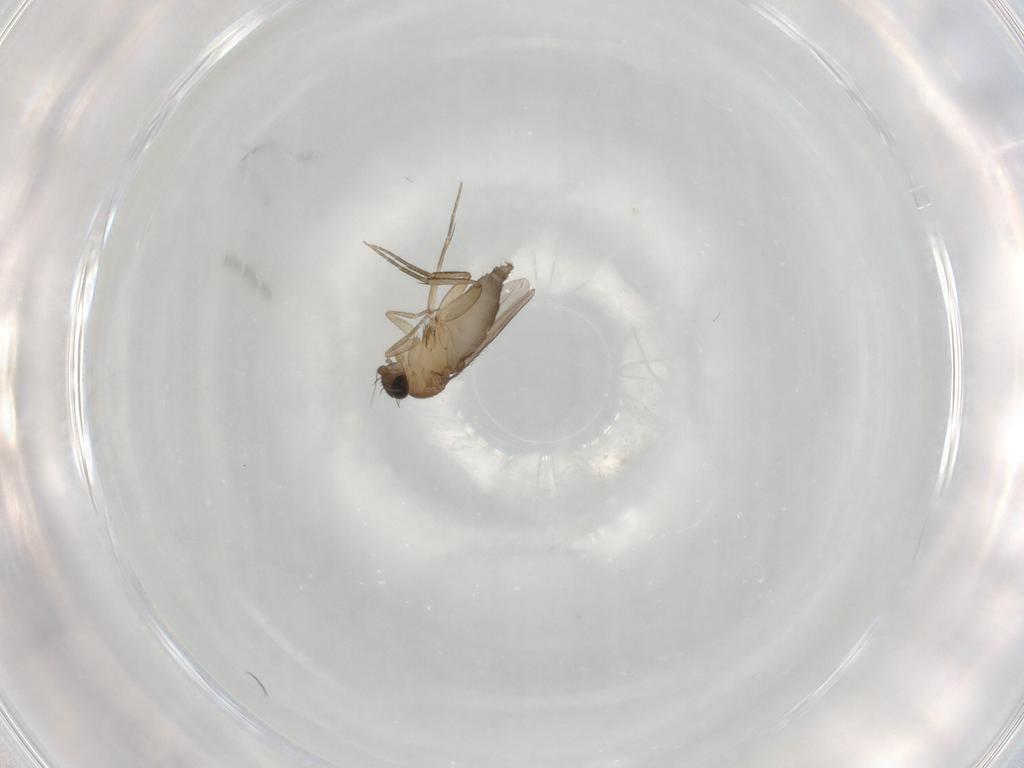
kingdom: Animalia
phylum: Arthropoda
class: Insecta
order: Diptera
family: Phoridae
